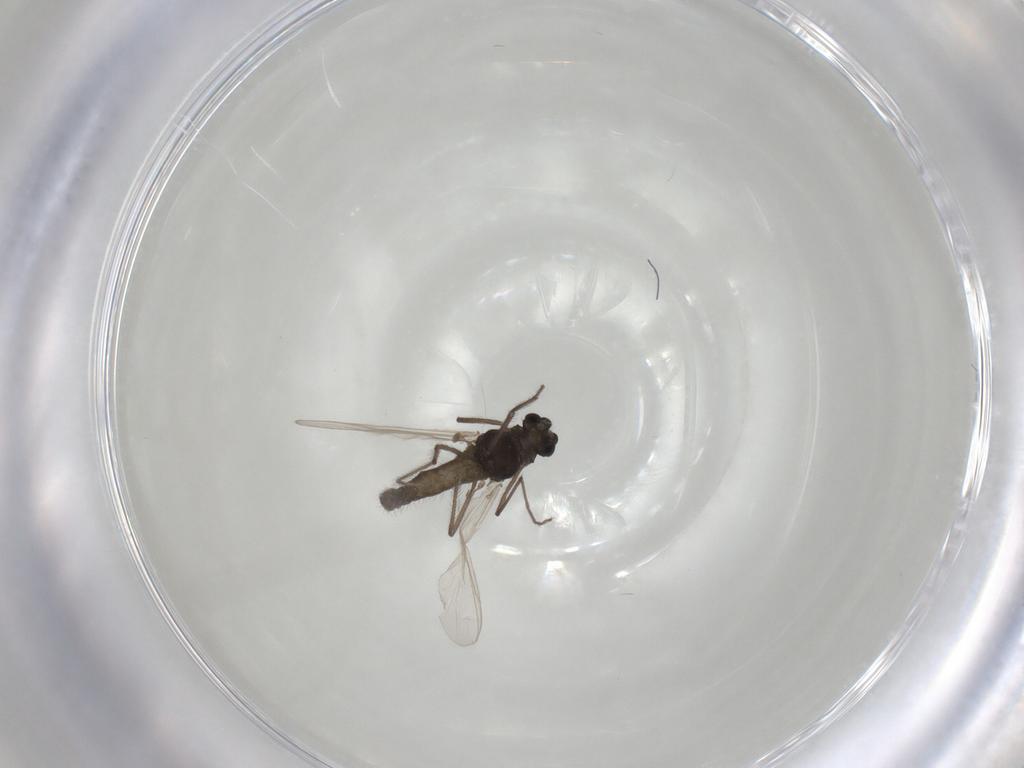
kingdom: Animalia
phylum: Arthropoda
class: Insecta
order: Diptera
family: Chironomidae
